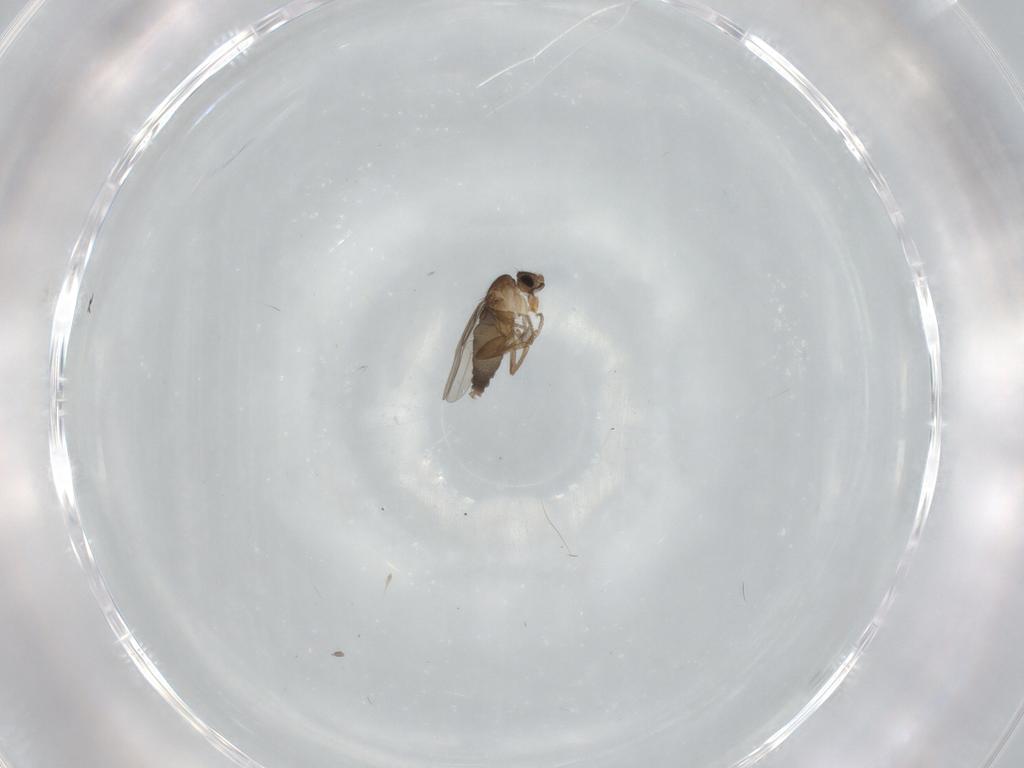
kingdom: Animalia
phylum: Arthropoda
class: Insecta
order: Diptera
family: Phoridae
